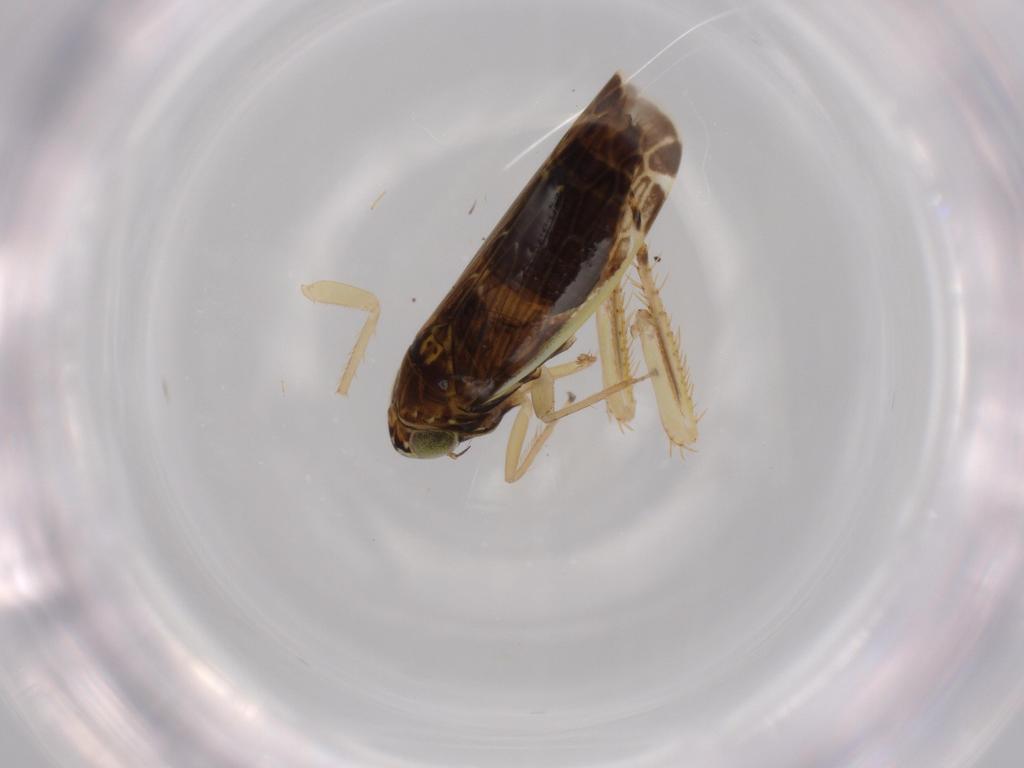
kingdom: Animalia
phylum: Arthropoda
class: Insecta
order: Hemiptera
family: Cicadellidae
